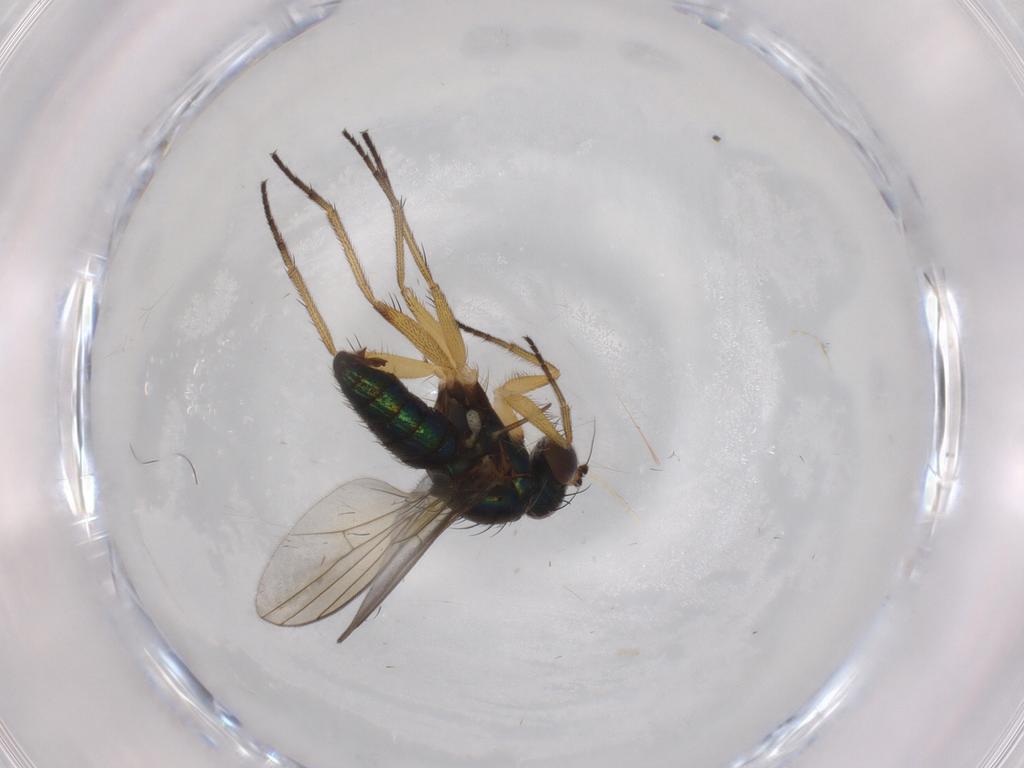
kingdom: Animalia
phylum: Arthropoda
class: Insecta
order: Diptera
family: Dolichopodidae
